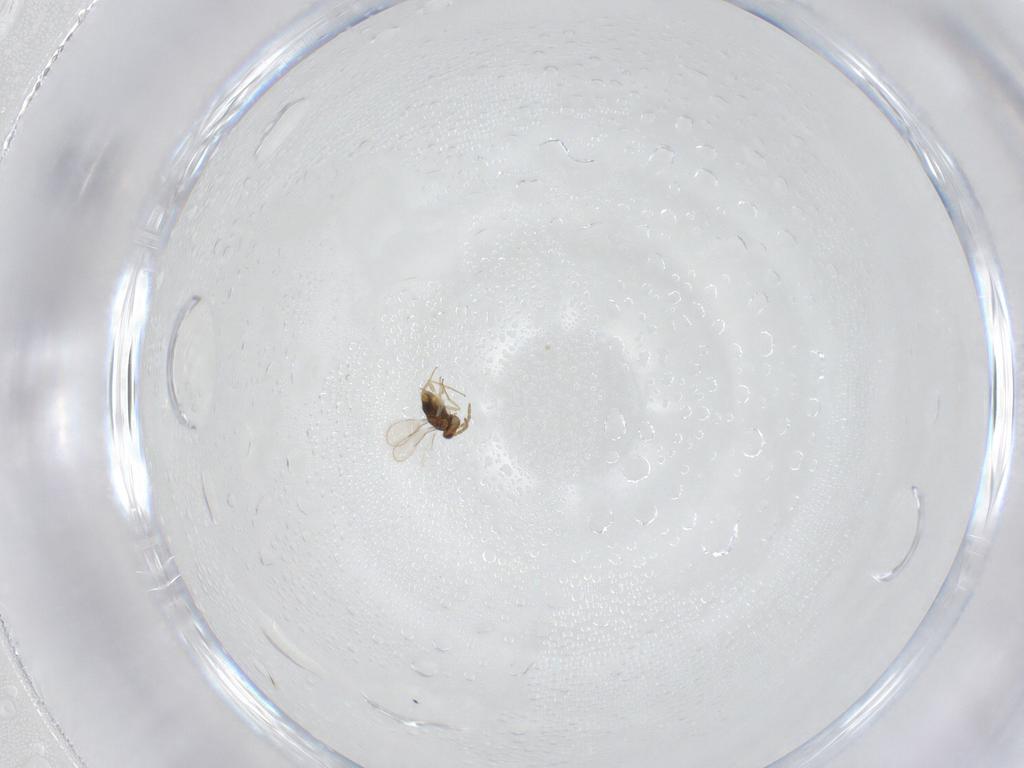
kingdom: Animalia
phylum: Arthropoda
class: Insecta
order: Hymenoptera
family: Aphelinidae
